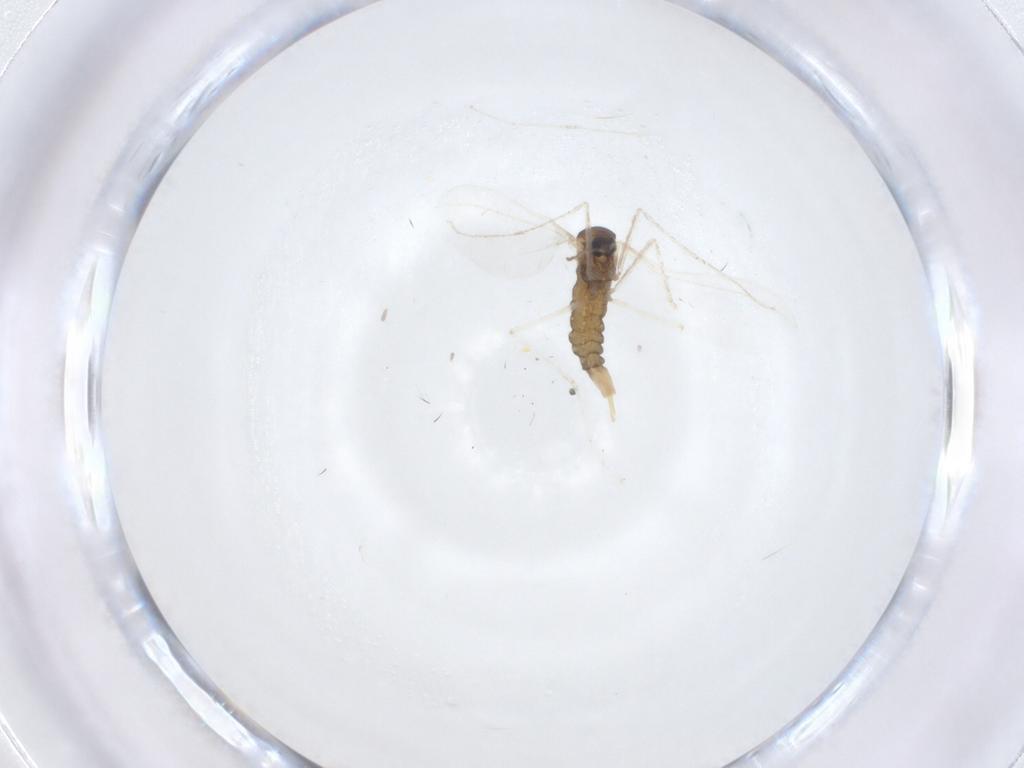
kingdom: Animalia
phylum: Arthropoda
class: Insecta
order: Diptera
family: Cecidomyiidae
